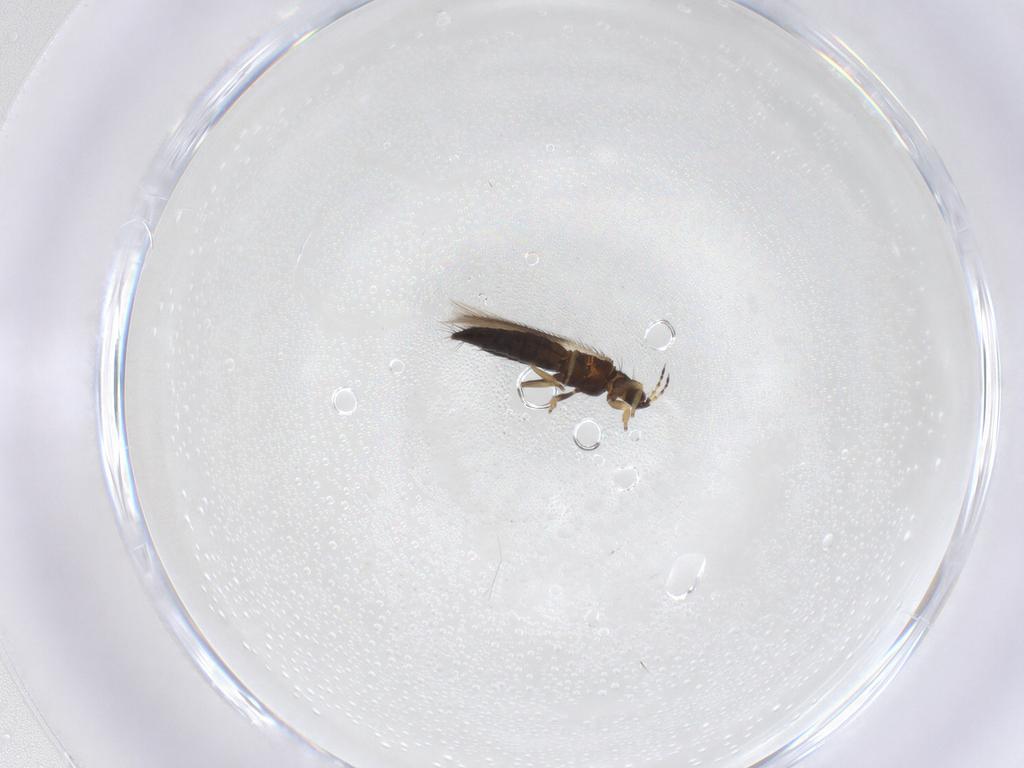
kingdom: Animalia
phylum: Arthropoda
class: Insecta
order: Thysanoptera
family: Thripidae
